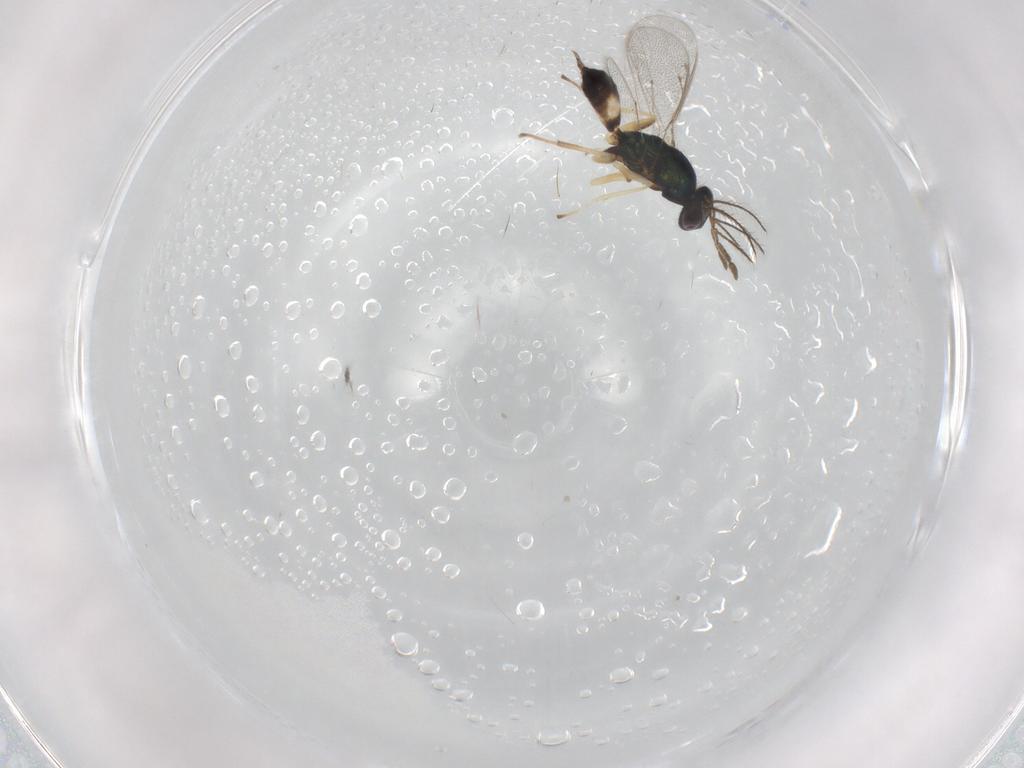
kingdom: Animalia
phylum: Arthropoda
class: Insecta
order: Hymenoptera
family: Eulophidae
